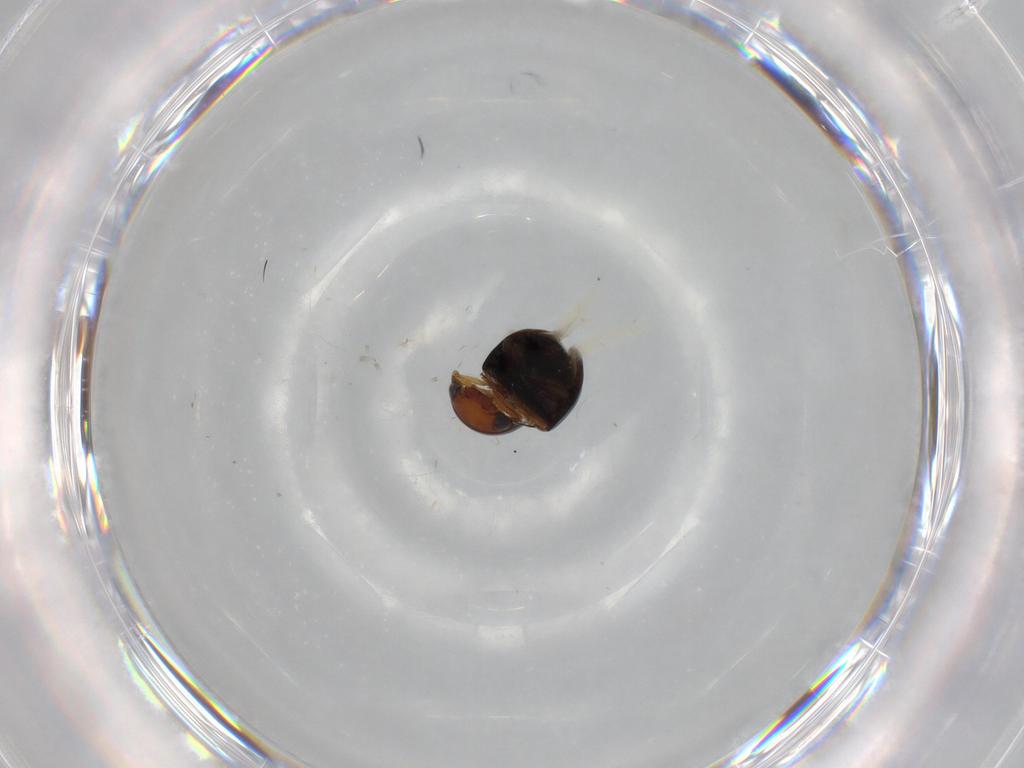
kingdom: Animalia
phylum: Arthropoda
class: Insecta
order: Coleoptera
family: Cybocephalidae
